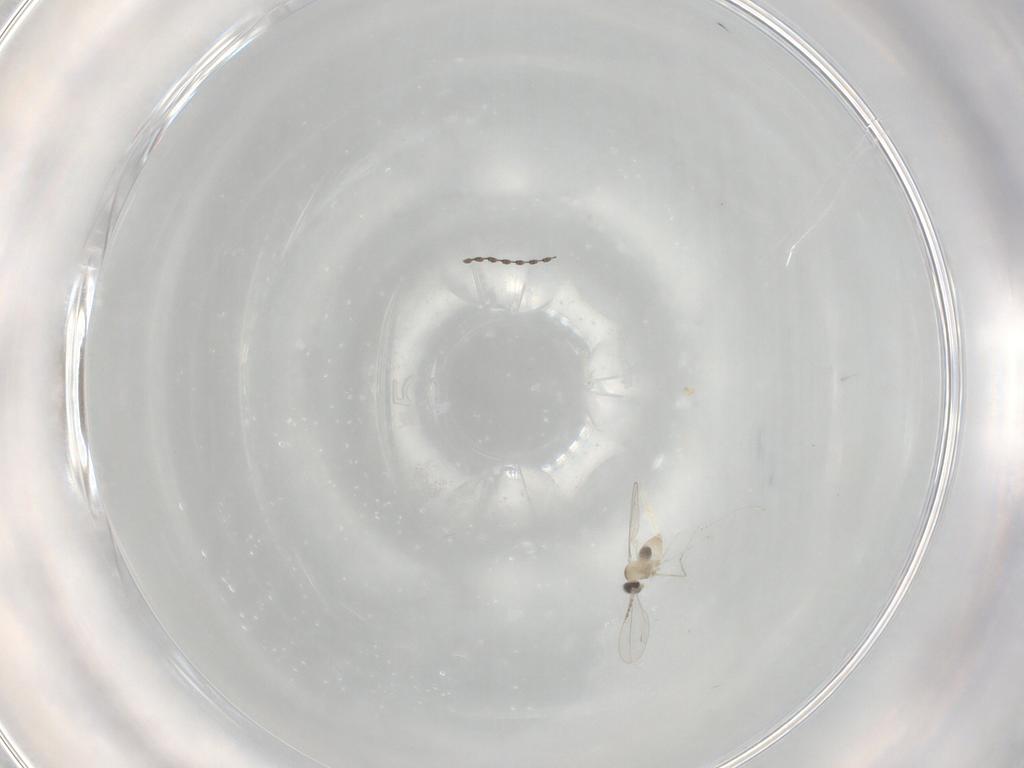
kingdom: Animalia
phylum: Arthropoda
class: Insecta
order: Diptera
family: Cecidomyiidae
